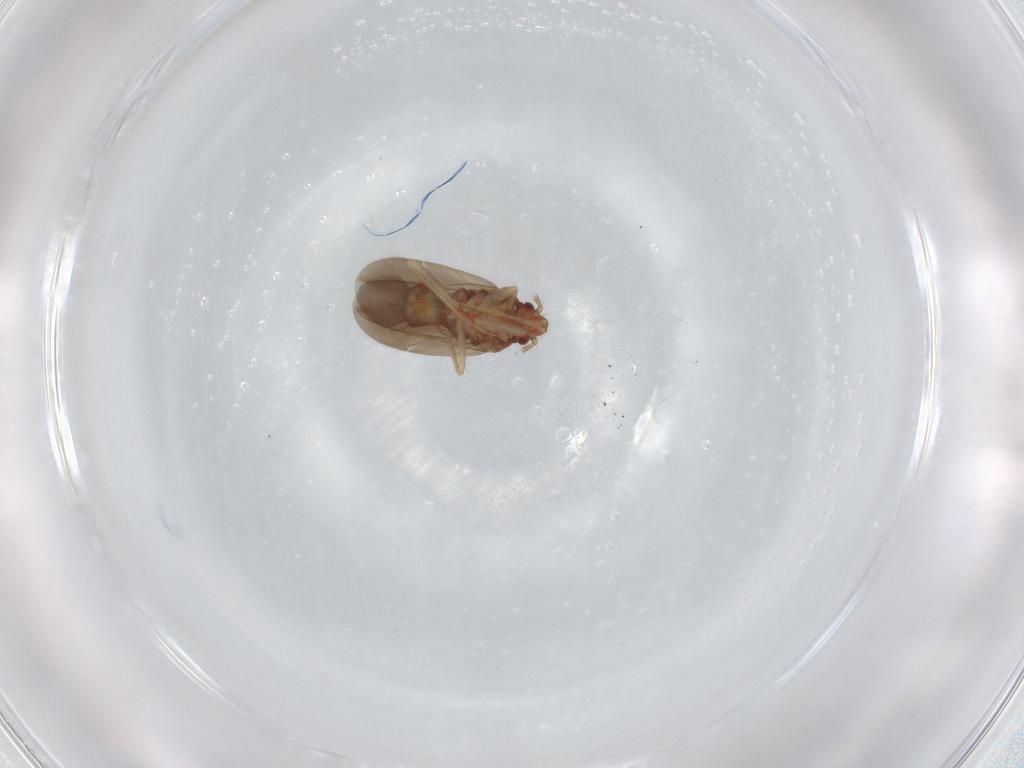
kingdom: Animalia
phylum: Arthropoda
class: Insecta
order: Hemiptera
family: Ceratocombidae
